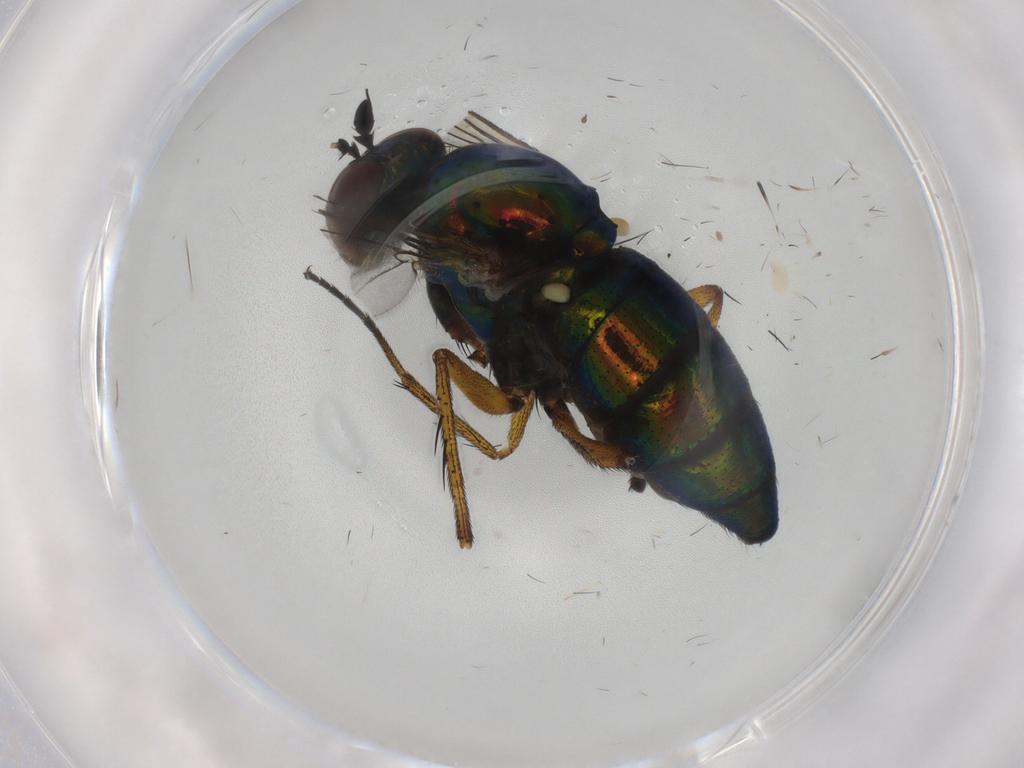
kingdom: Animalia
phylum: Arthropoda
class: Insecta
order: Diptera
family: Dolichopodidae
